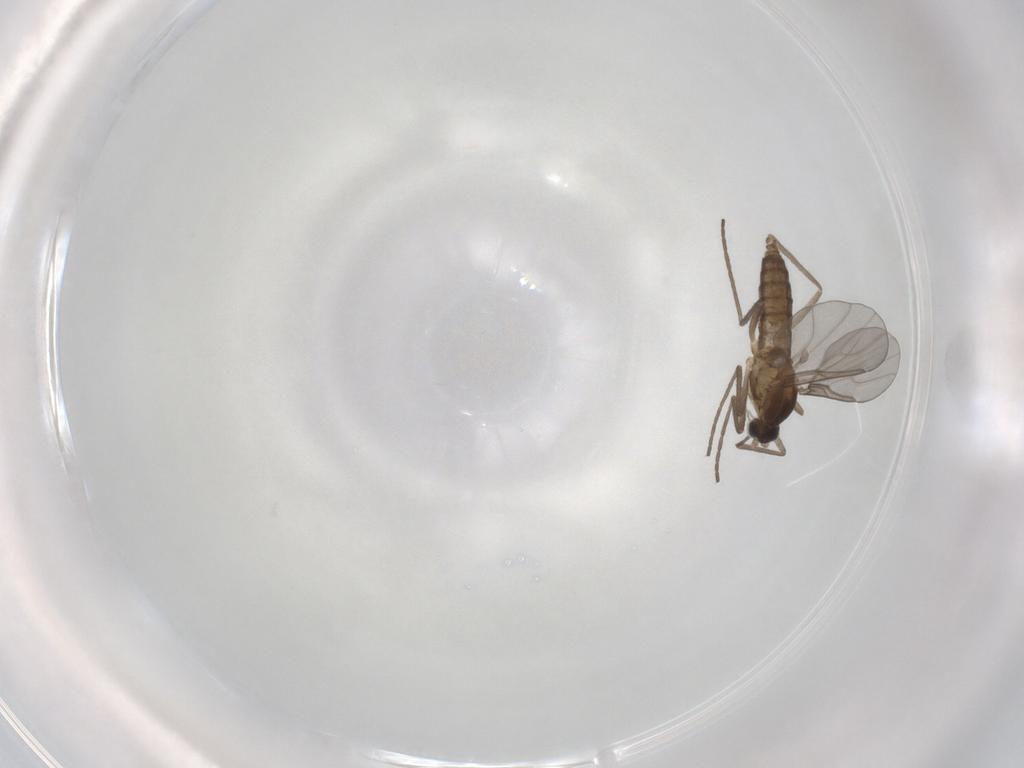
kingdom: Animalia
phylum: Arthropoda
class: Insecta
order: Diptera
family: Cecidomyiidae
